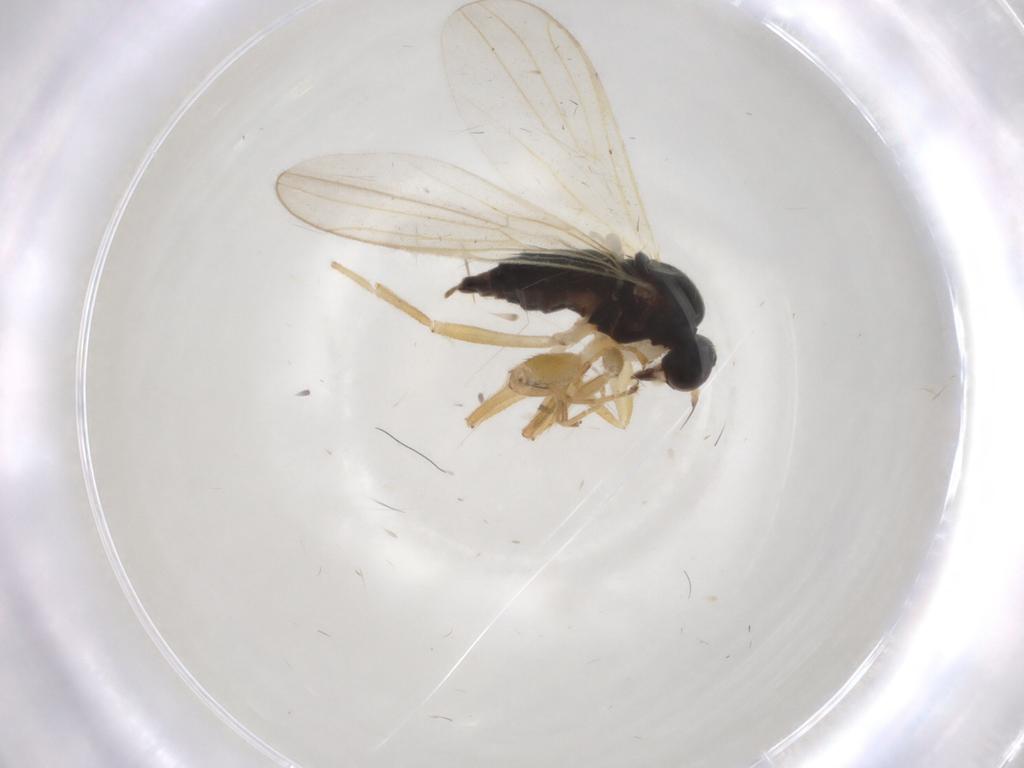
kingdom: Animalia
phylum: Arthropoda
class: Insecta
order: Diptera
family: Hybotidae
